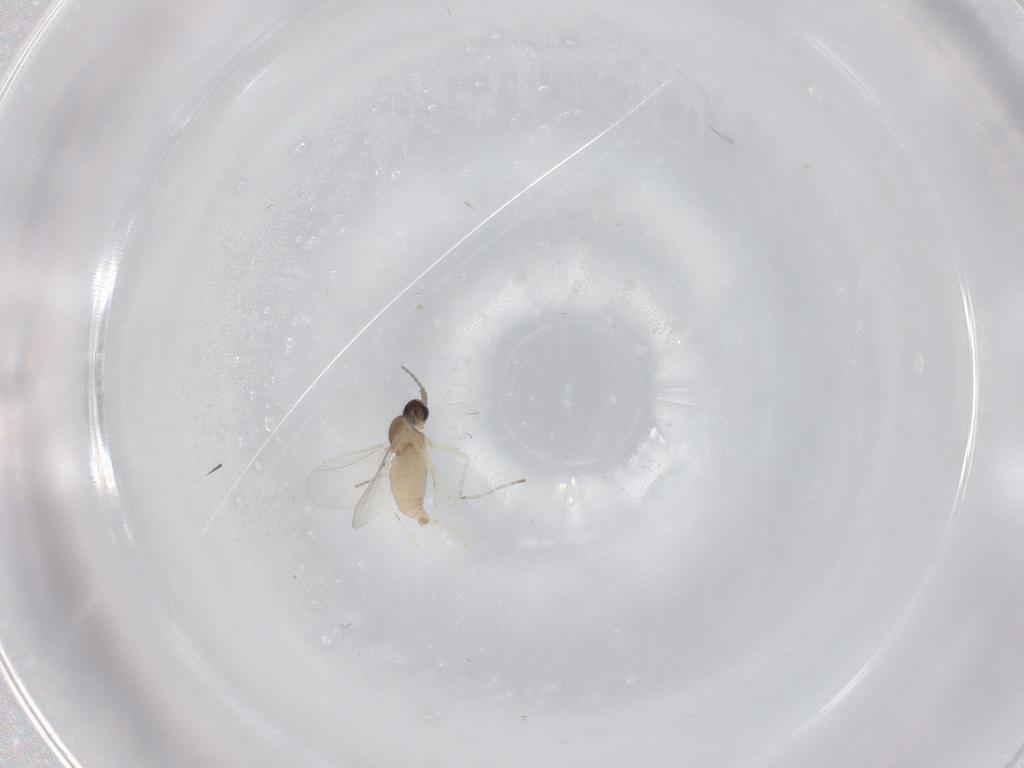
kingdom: Animalia
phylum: Arthropoda
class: Insecta
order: Diptera
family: Drosophilidae
